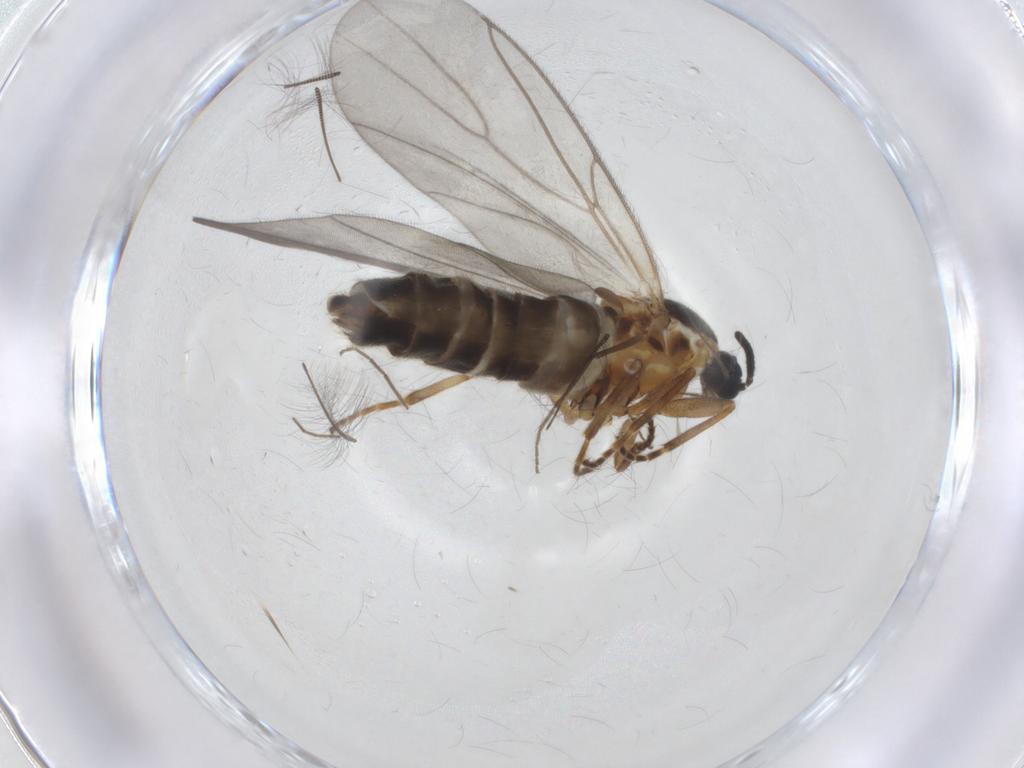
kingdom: Animalia
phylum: Arthropoda
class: Insecta
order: Diptera
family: Scatopsidae
